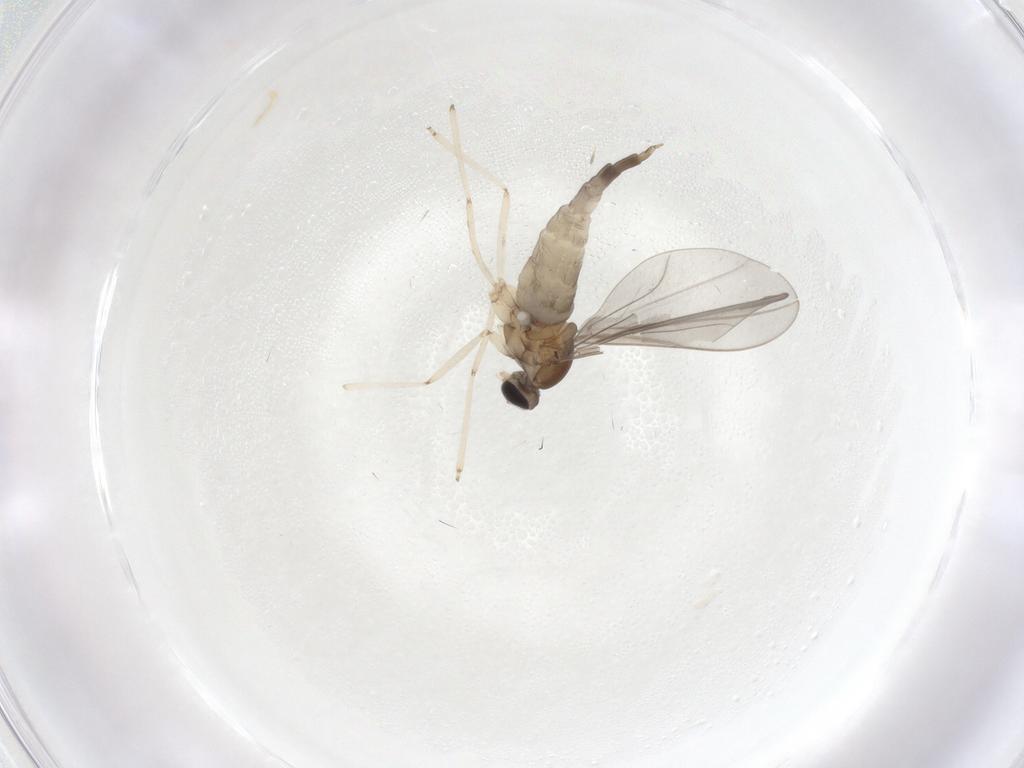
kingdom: Animalia
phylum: Arthropoda
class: Insecta
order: Diptera
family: Cecidomyiidae
